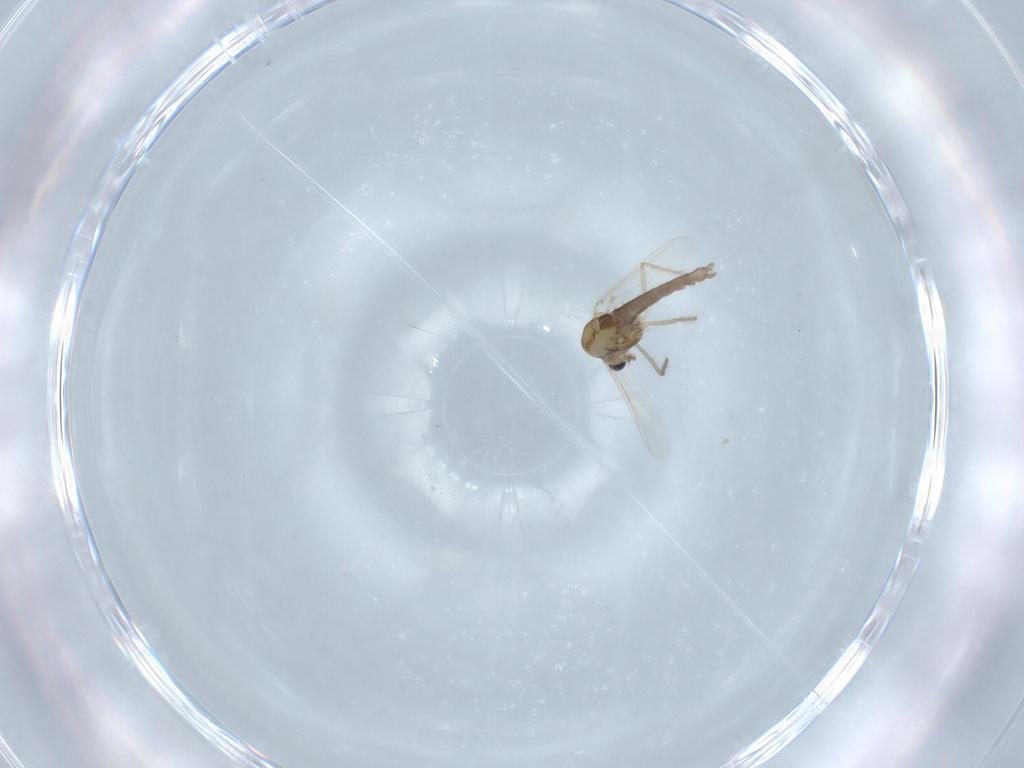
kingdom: Animalia
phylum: Arthropoda
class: Insecta
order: Diptera
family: Chironomidae
